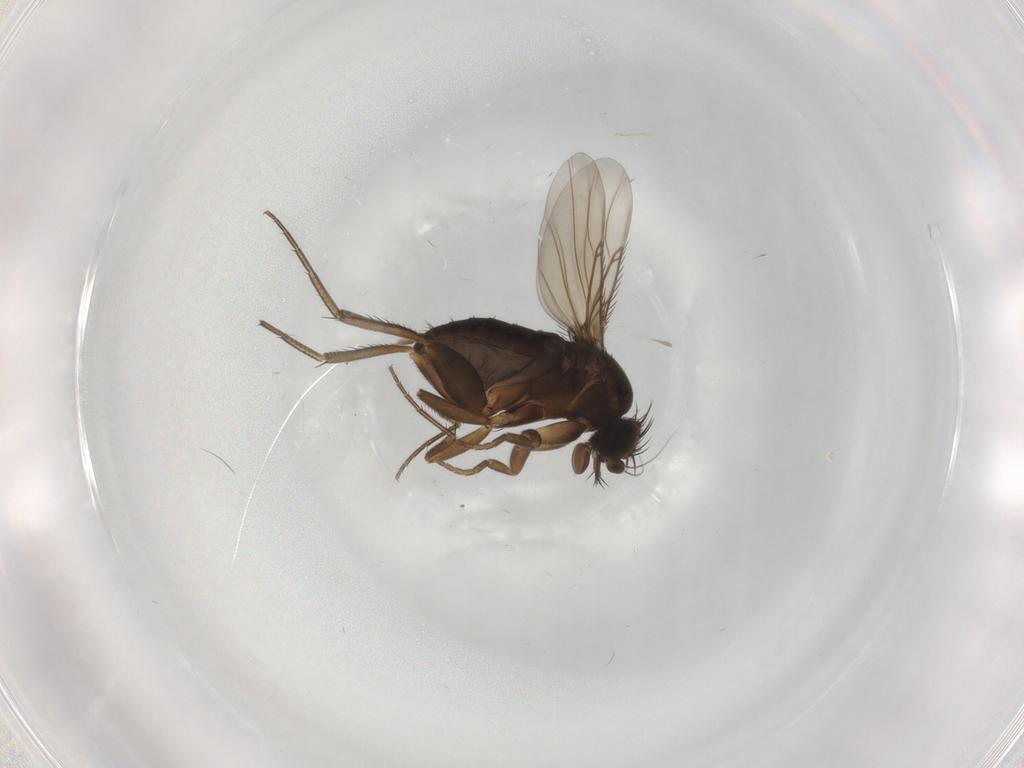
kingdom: Animalia
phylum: Arthropoda
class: Insecta
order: Diptera
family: Phoridae
